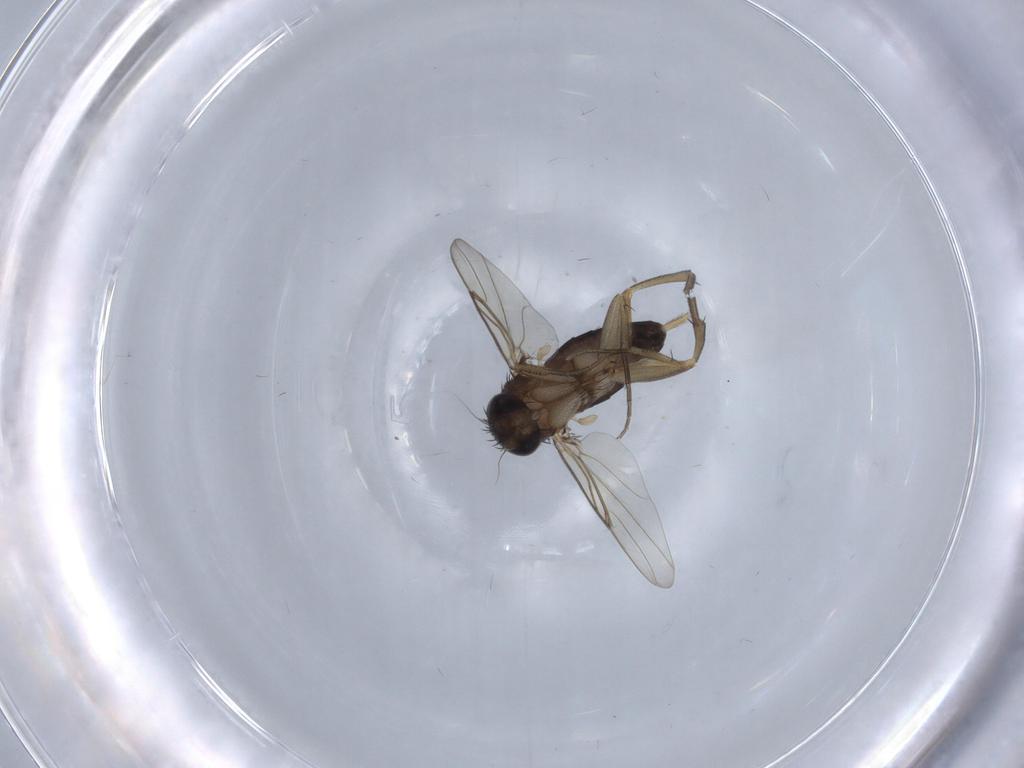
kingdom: Animalia
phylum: Arthropoda
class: Insecta
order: Diptera
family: Phoridae
